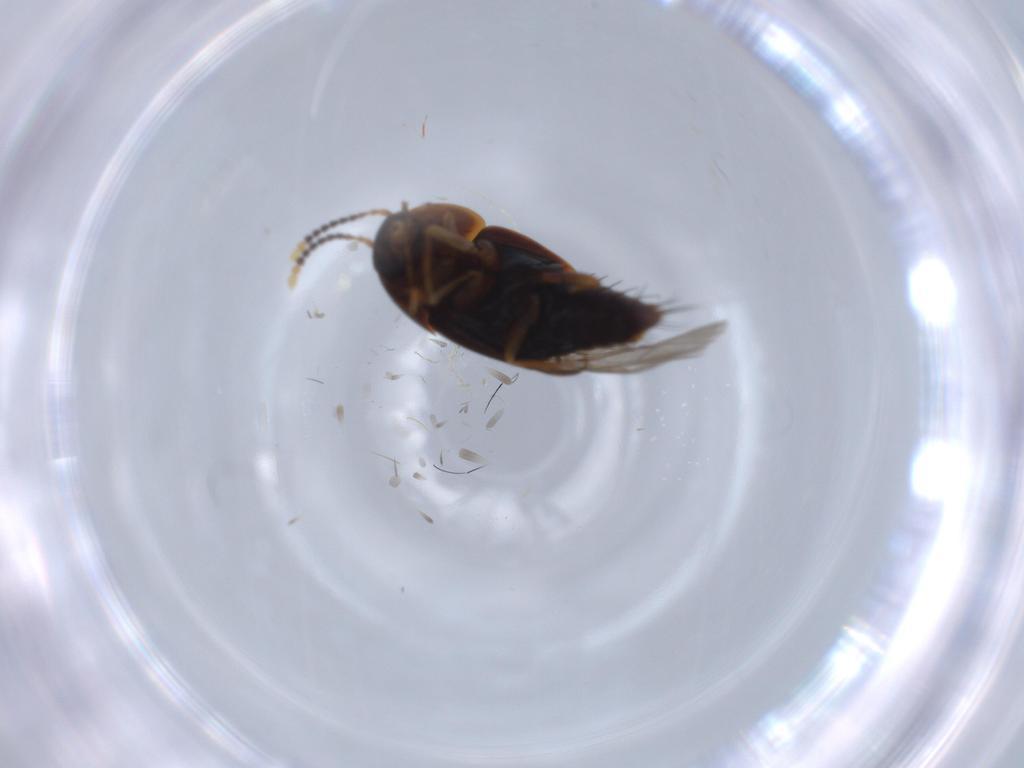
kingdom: Animalia
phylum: Arthropoda
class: Insecta
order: Coleoptera
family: Staphylinidae
